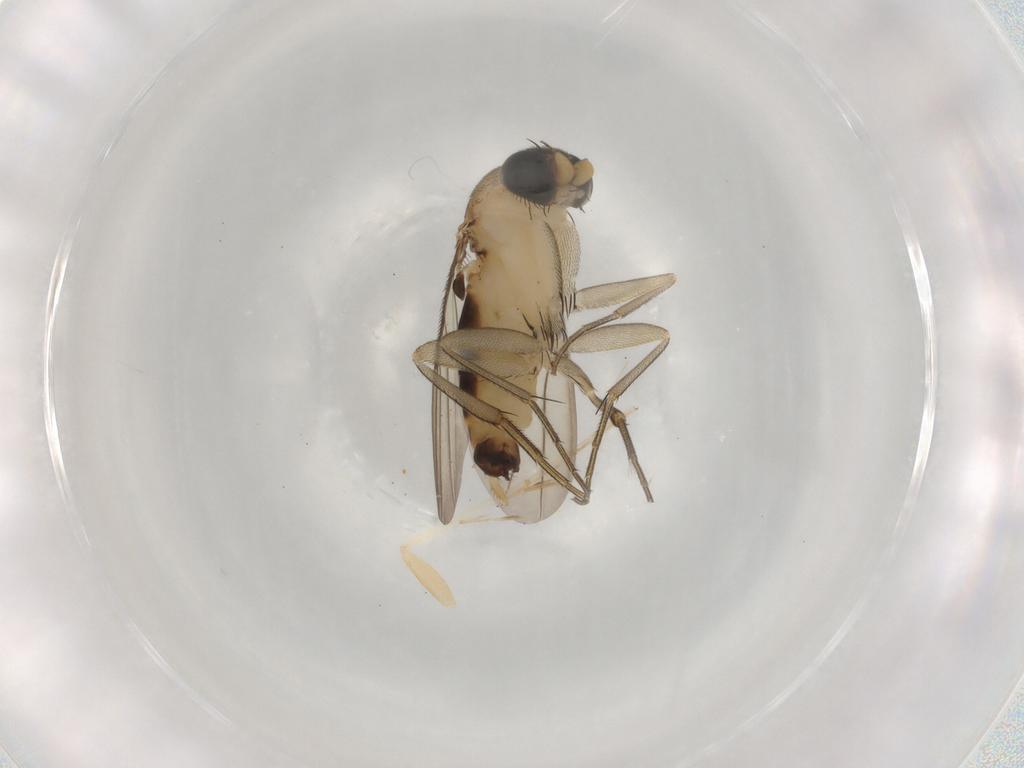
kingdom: Animalia
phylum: Arthropoda
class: Insecta
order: Diptera
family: Phoridae
